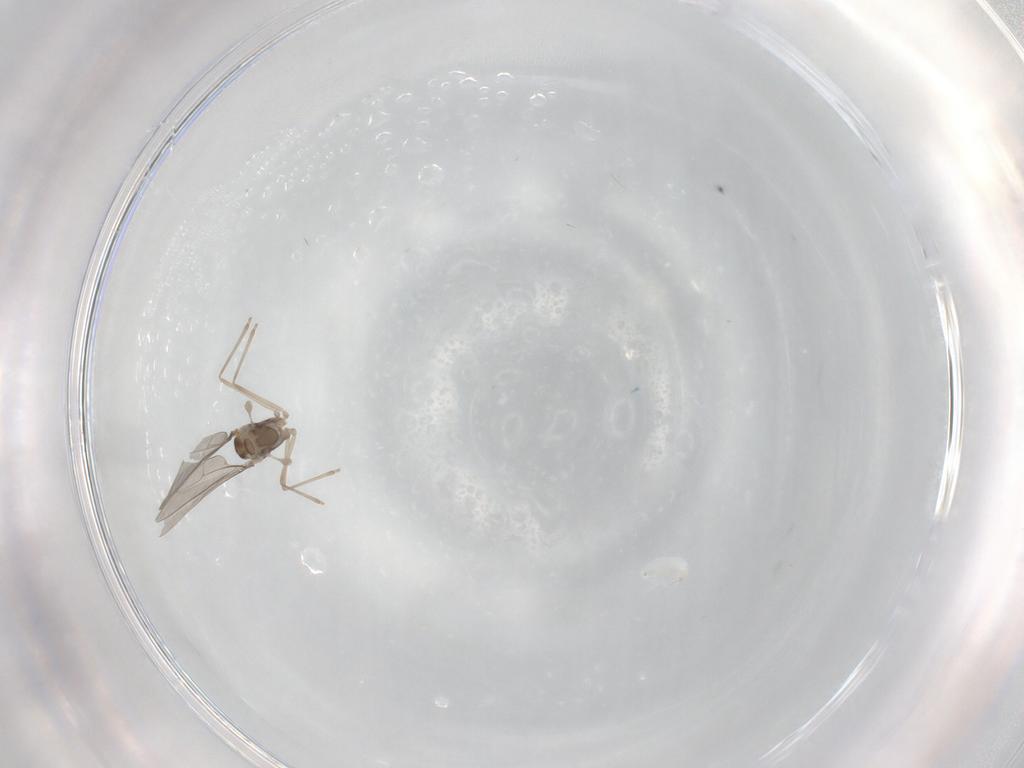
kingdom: Animalia
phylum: Arthropoda
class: Insecta
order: Diptera
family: Chironomidae
